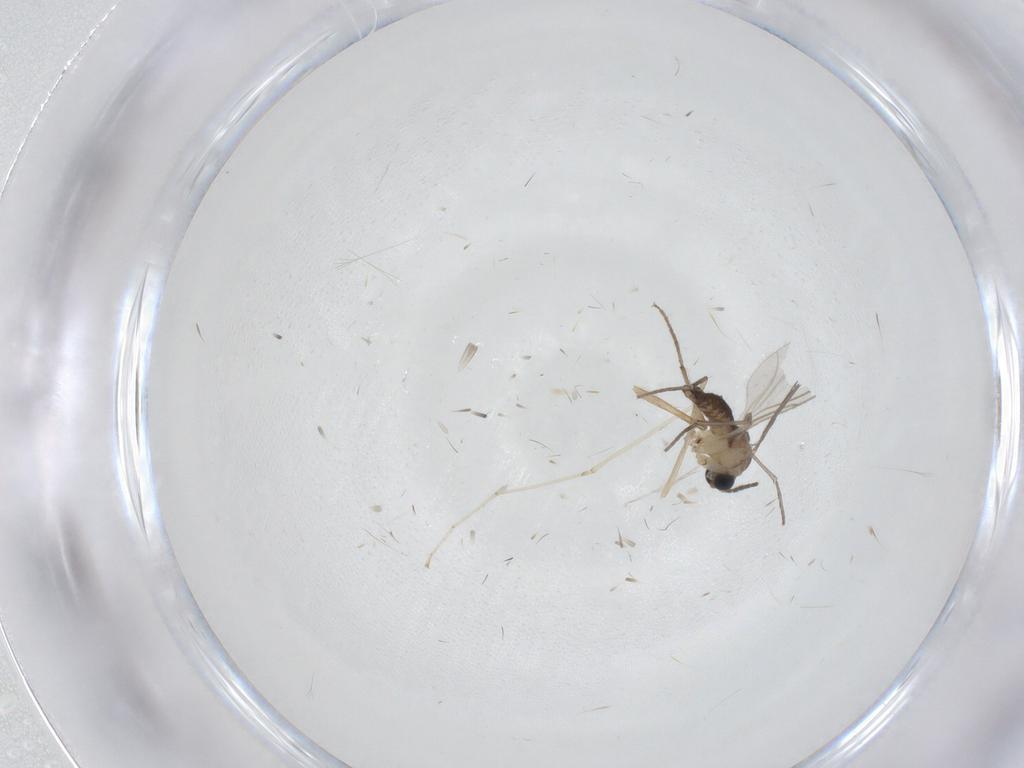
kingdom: Animalia
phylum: Arthropoda
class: Insecta
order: Diptera
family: Sciaridae
